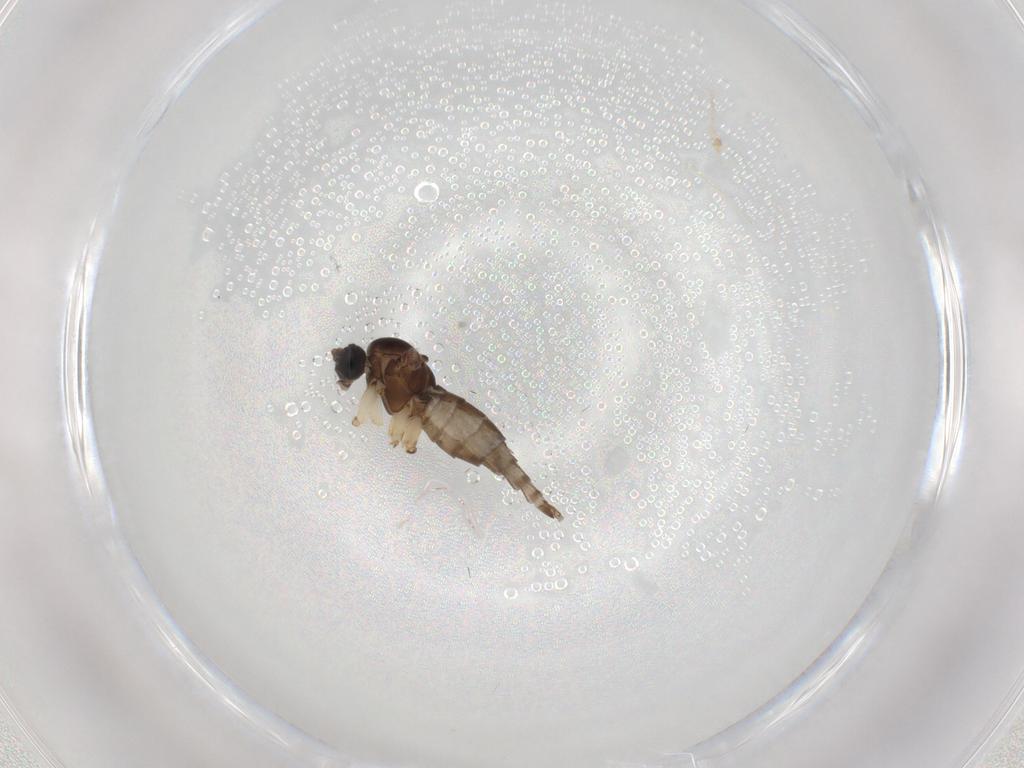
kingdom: Animalia
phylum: Arthropoda
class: Insecta
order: Diptera
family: Sciaridae
